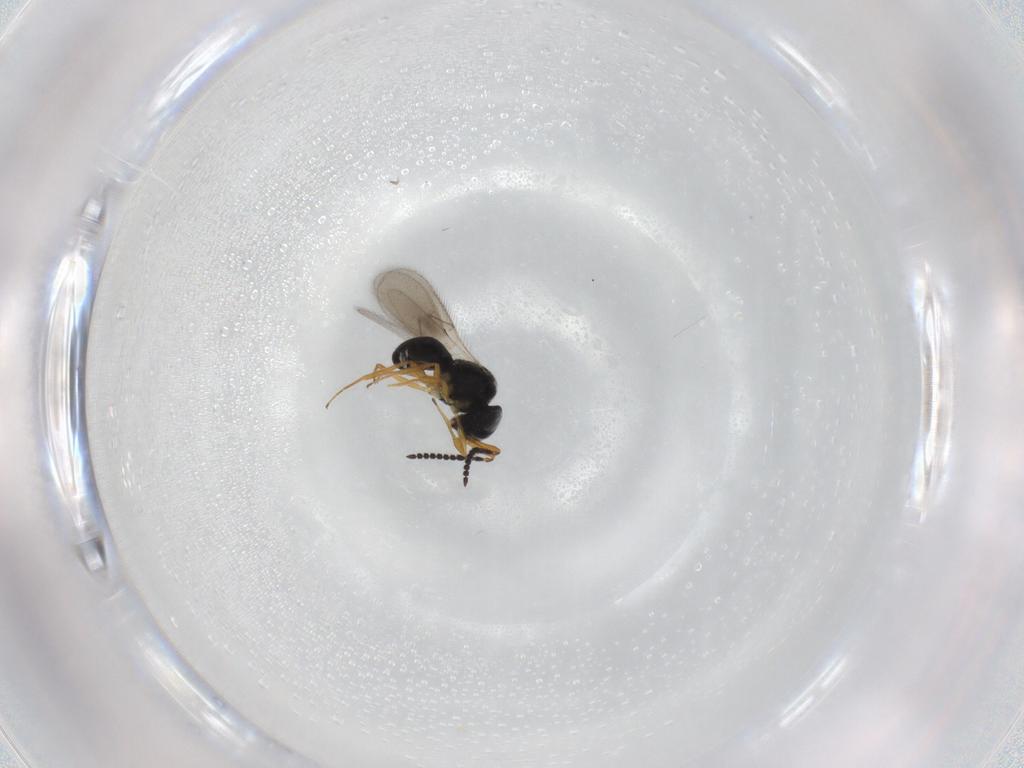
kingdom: Animalia
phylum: Arthropoda
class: Insecta
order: Hymenoptera
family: Scelionidae
